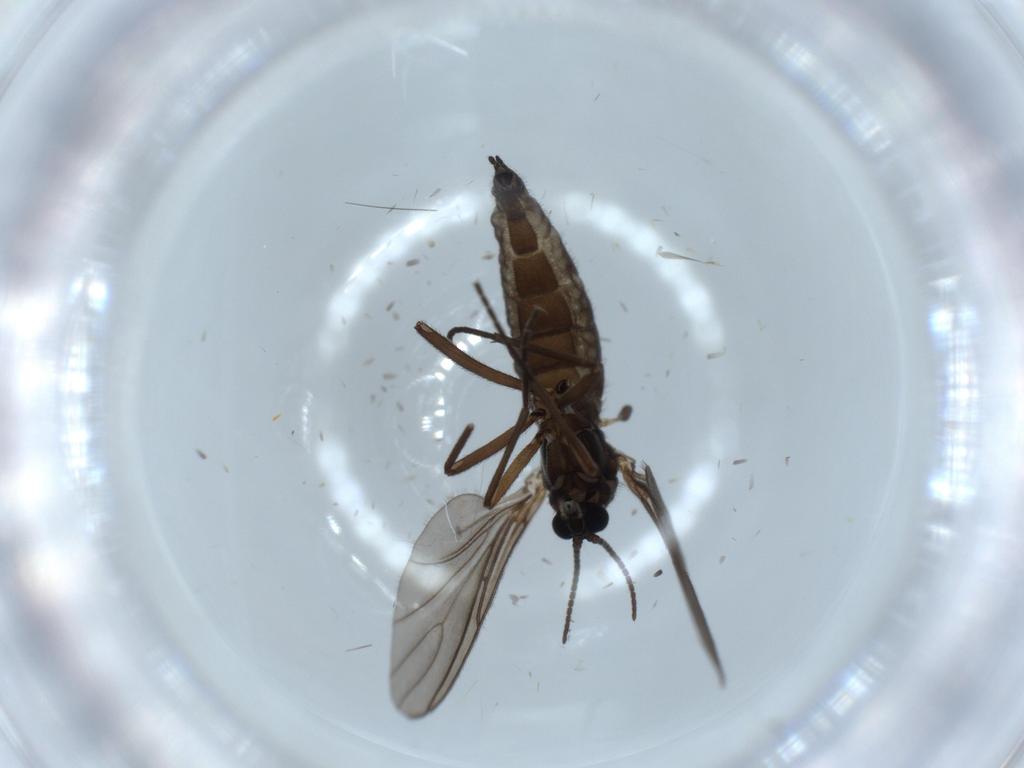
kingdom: Animalia
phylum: Arthropoda
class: Insecta
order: Diptera
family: Sciaridae
